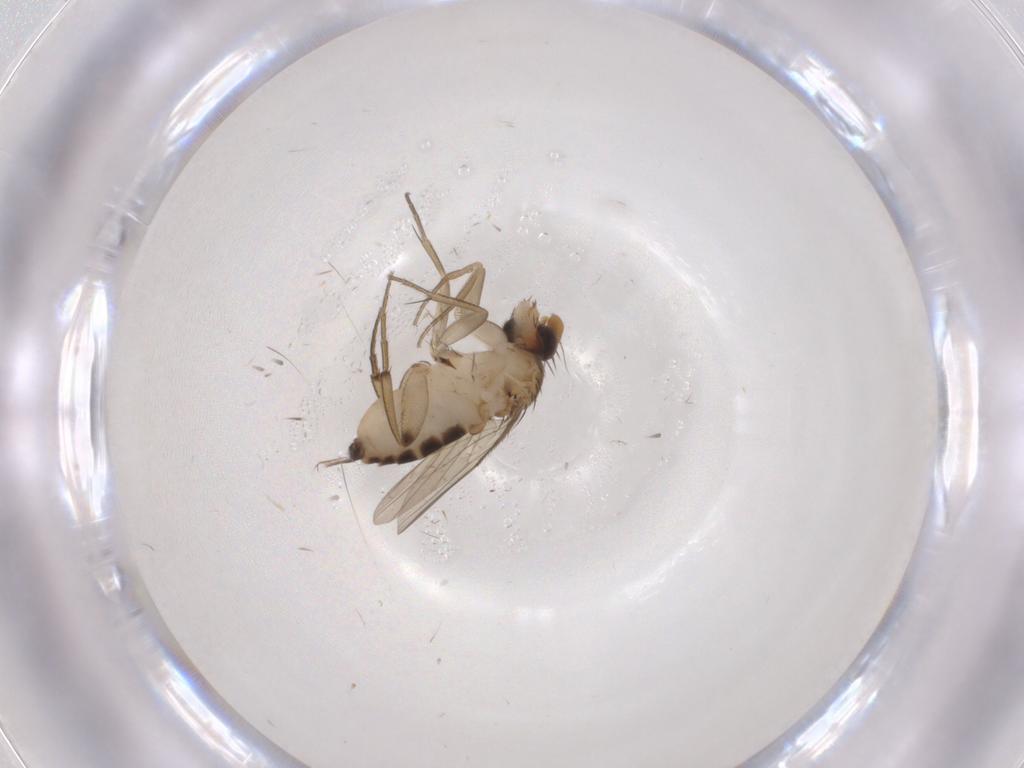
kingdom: Animalia
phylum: Arthropoda
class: Insecta
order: Diptera
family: Phoridae
